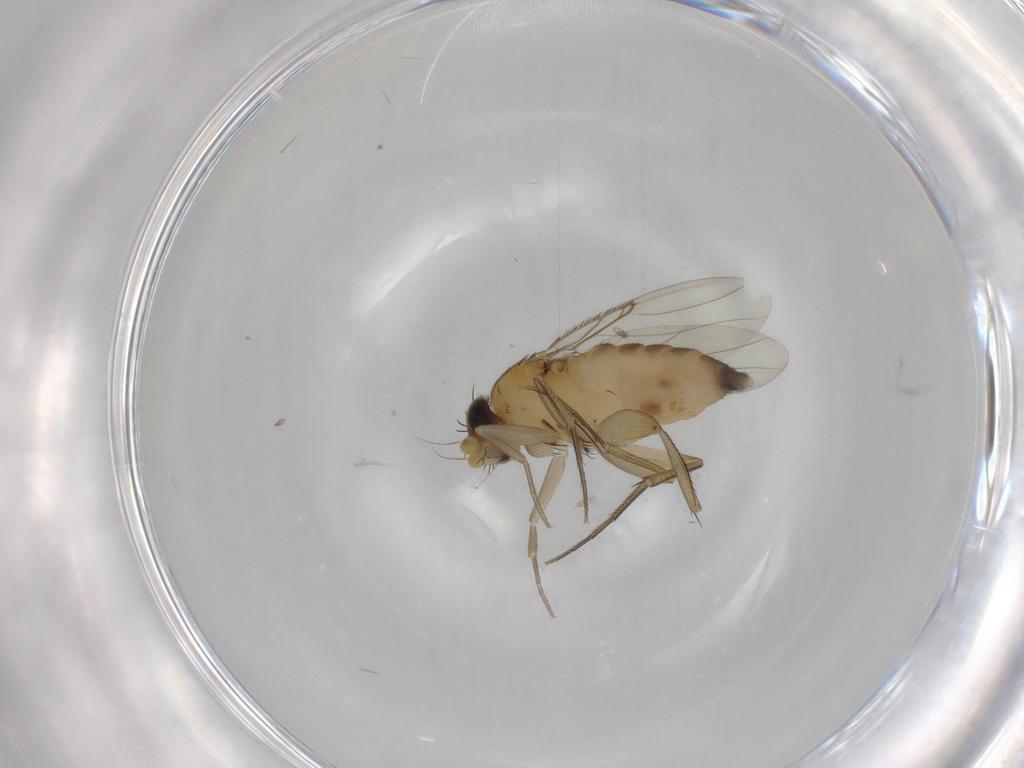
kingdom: Animalia
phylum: Arthropoda
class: Insecta
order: Diptera
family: Phoridae
